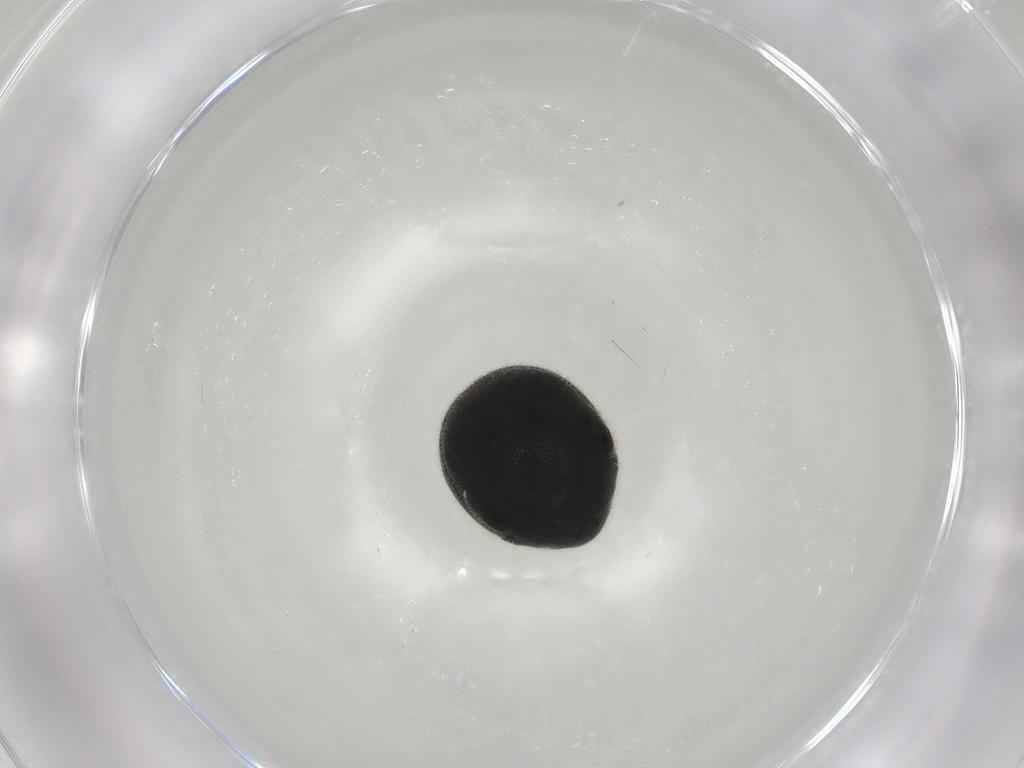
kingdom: Animalia
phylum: Arthropoda
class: Insecta
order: Coleoptera
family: Ptinidae
